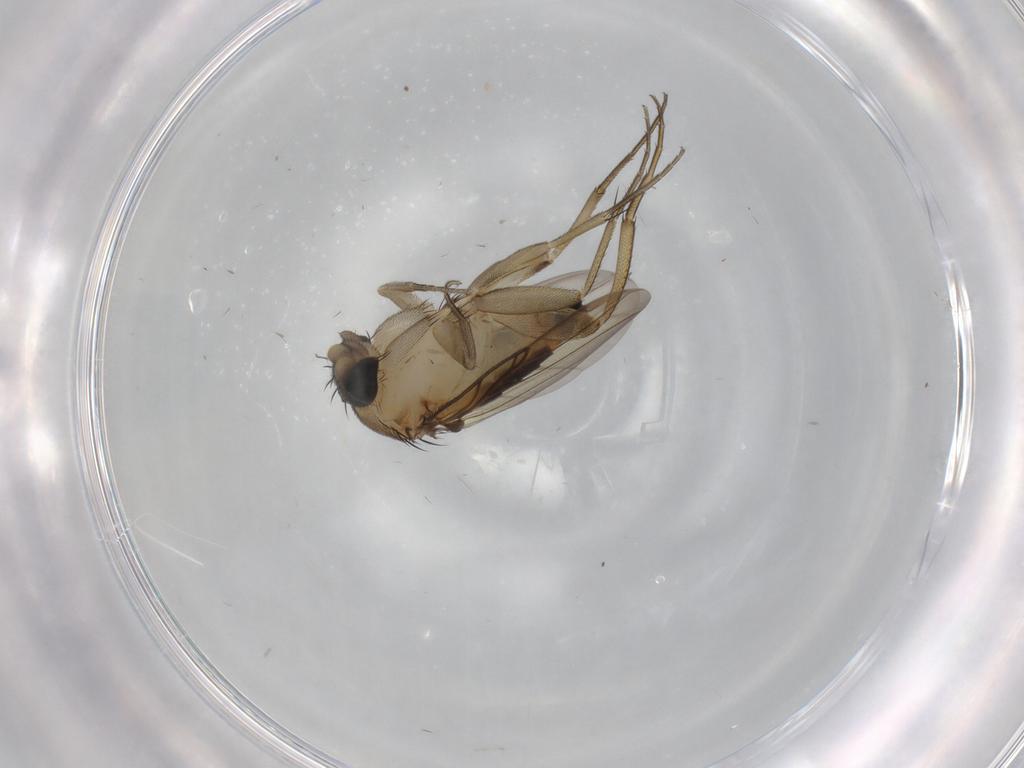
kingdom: Animalia
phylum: Arthropoda
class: Insecta
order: Diptera
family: Phoridae
